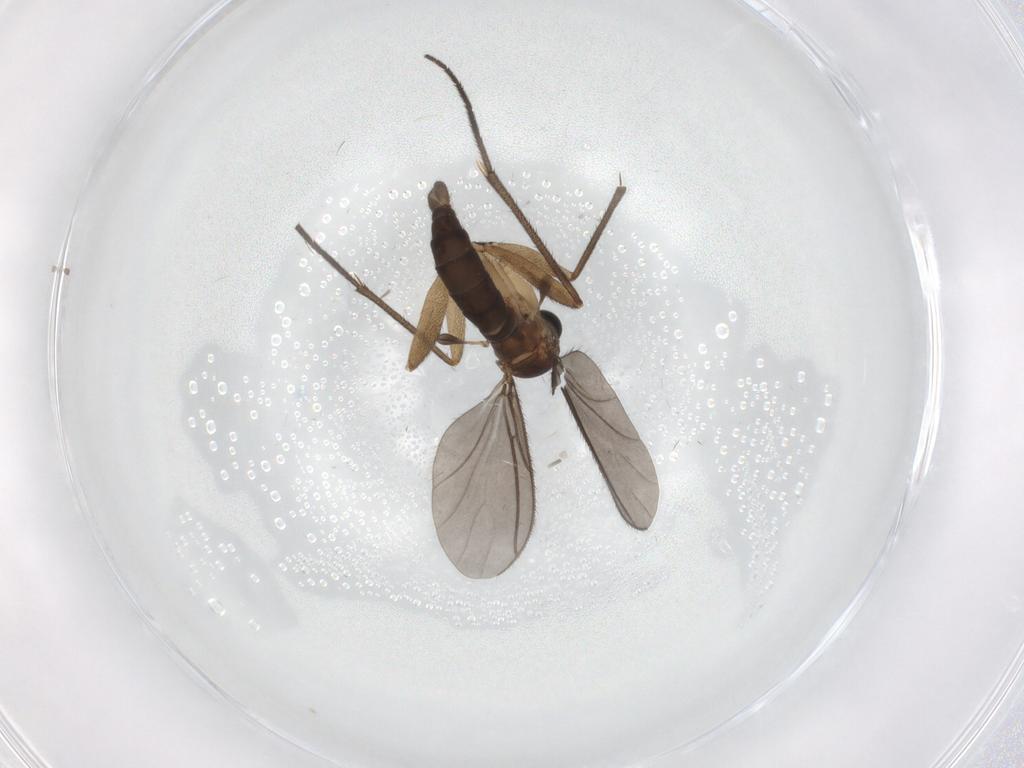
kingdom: Animalia
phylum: Arthropoda
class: Insecta
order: Diptera
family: Sciaridae
